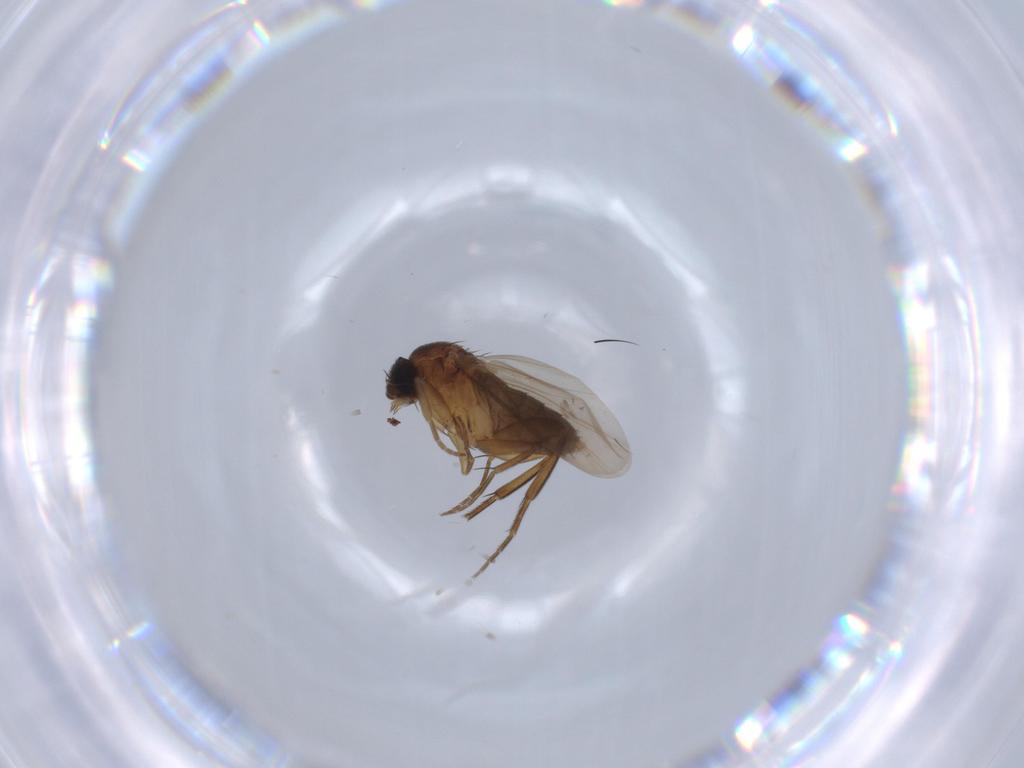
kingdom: Animalia
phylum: Arthropoda
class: Insecta
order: Diptera
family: Phoridae
